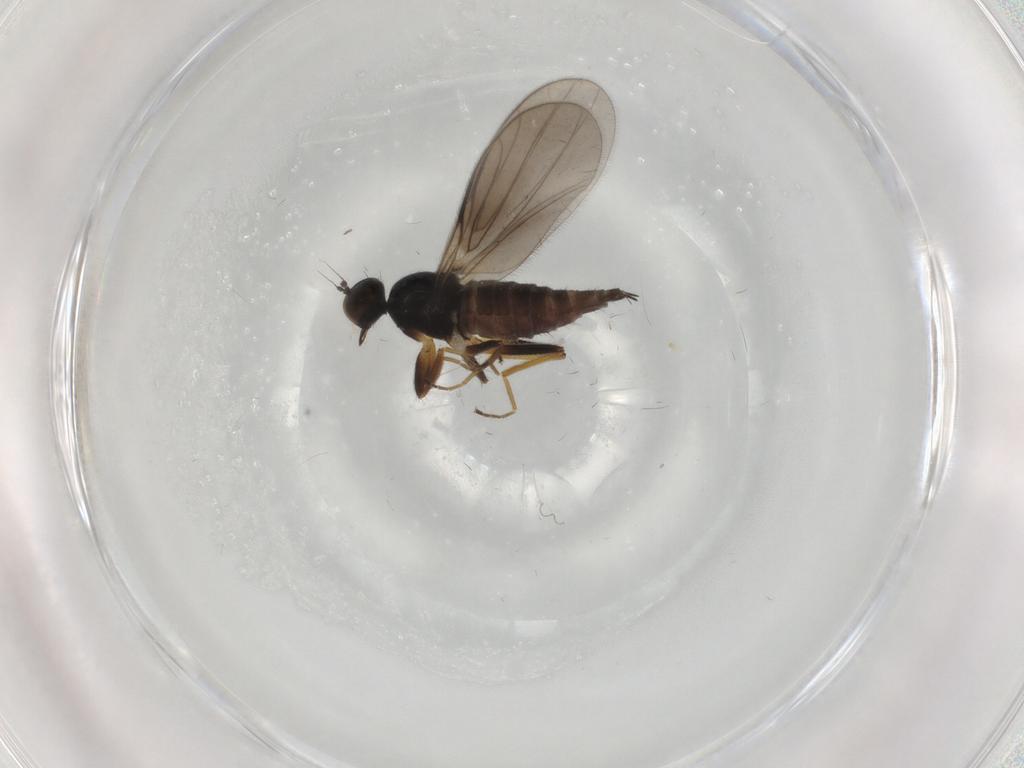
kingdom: Animalia
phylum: Arthropoda
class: Insecta
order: Diptera
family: Hybotidae
